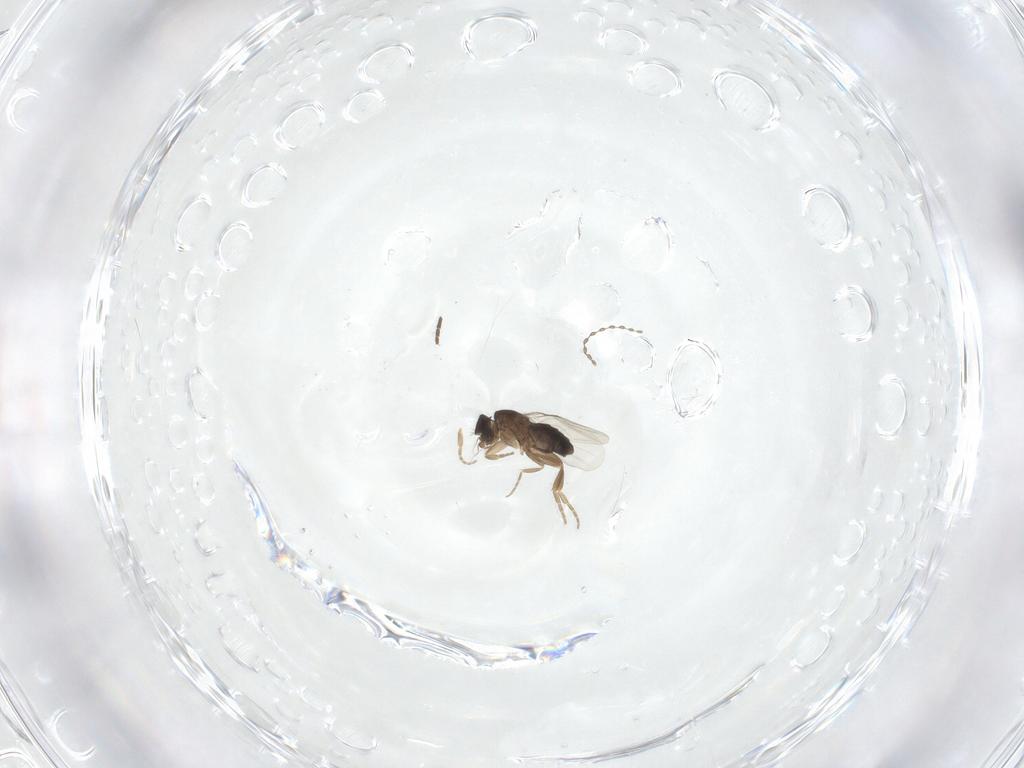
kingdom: Animalia
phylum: Arthropoda
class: Insecta
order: Diptera
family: Phoridae
